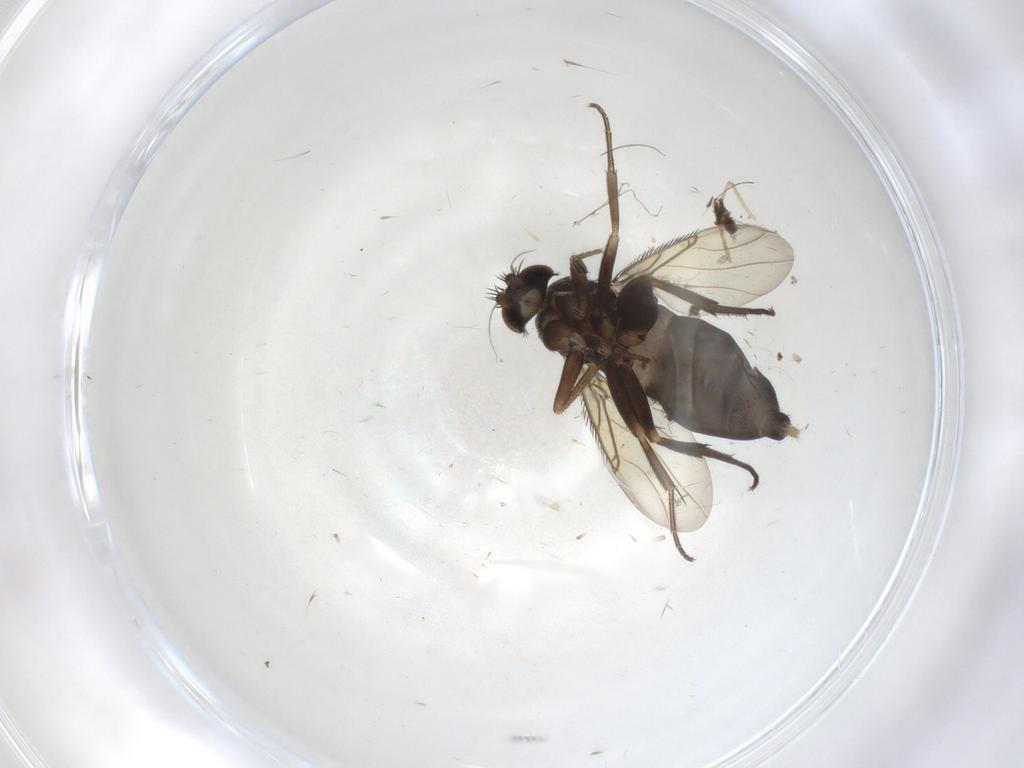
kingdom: Animalia
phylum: Arthropoda
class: Insecta
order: Diptera
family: Phoridae
